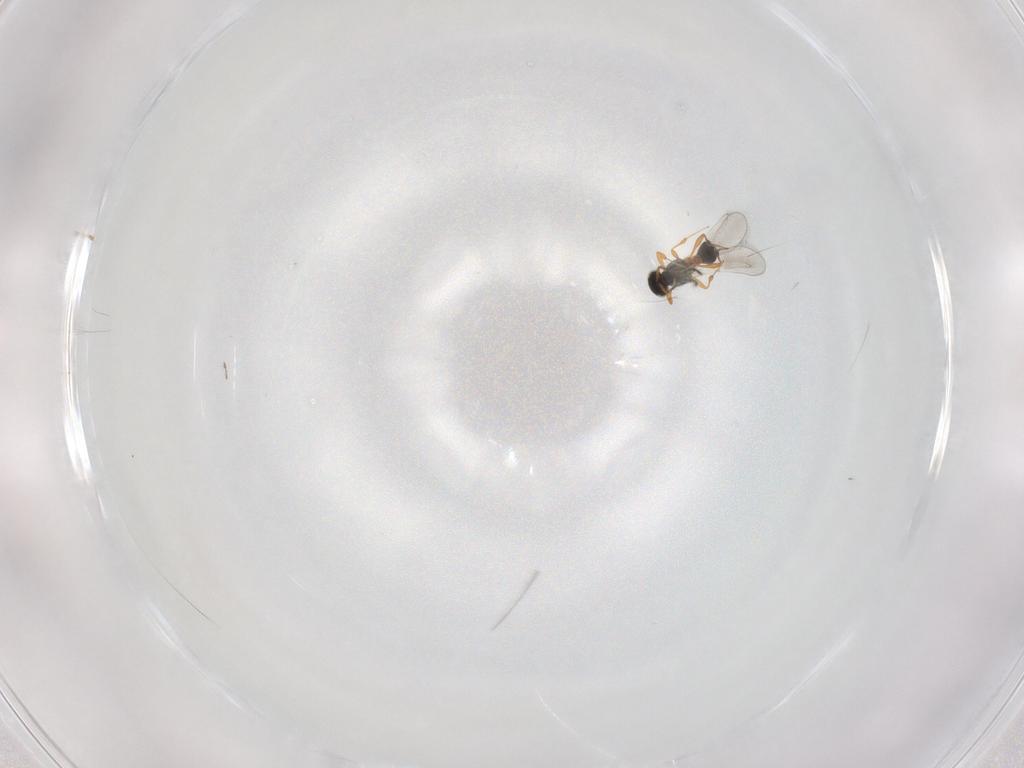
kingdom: Animalia
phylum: Arthropoda
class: Insecta
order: Hymenoptera
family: Platygastridae
